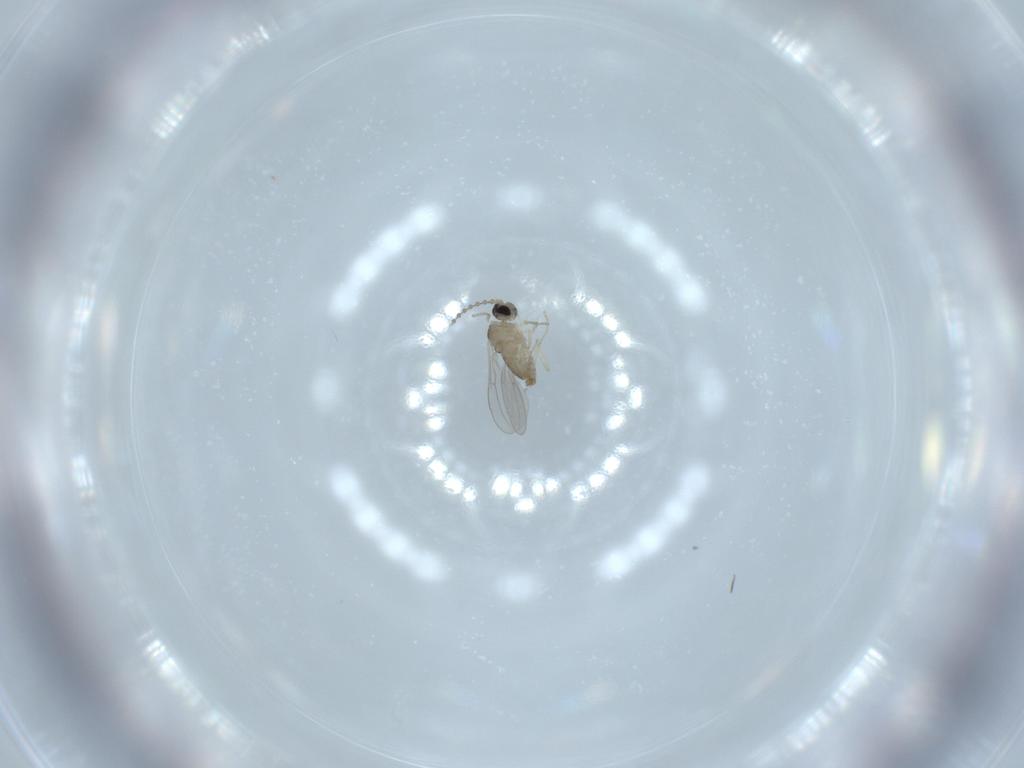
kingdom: Animalia
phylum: Arthropoda
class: Insecta
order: Diptera
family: Cecidomyiidae
